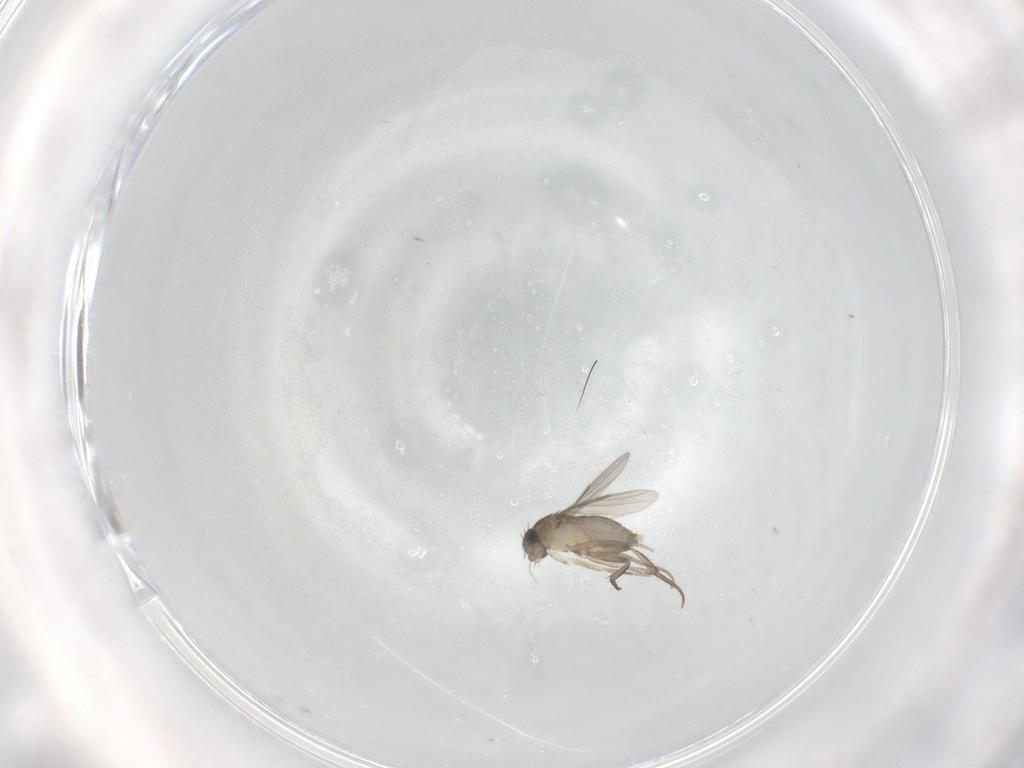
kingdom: Animalia
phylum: Arthropoda
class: Insecta
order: Diptera
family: Phoridae
